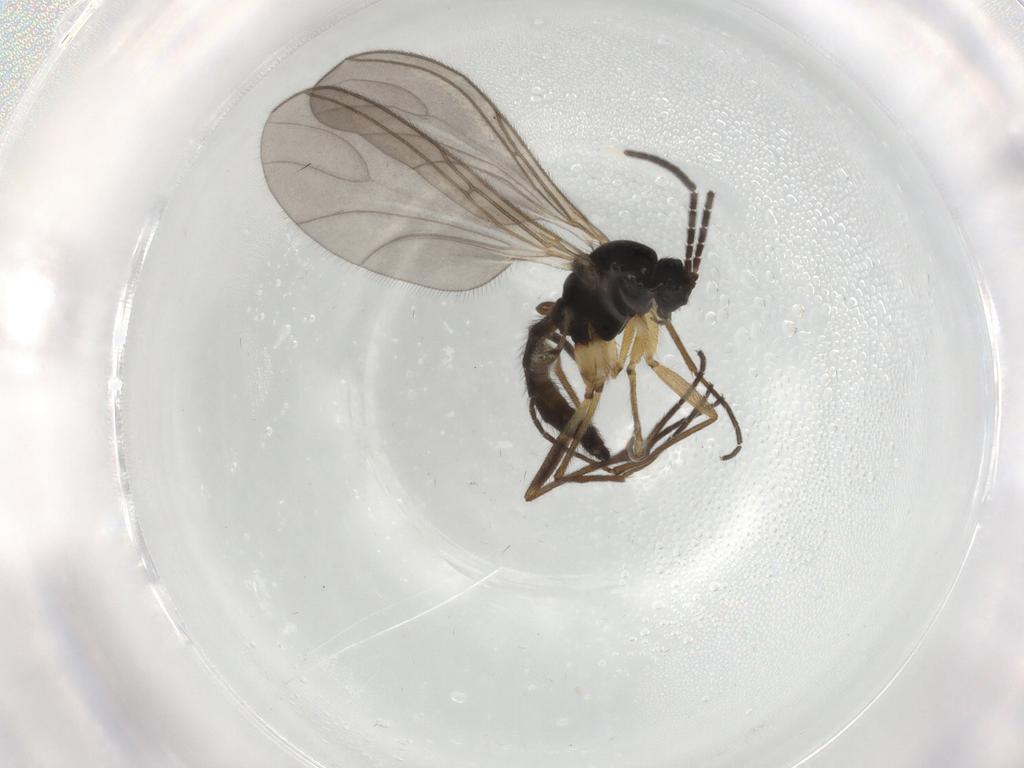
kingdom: Animalia
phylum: Arthropoda
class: Insecta
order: Diptera
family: Sciaridae
